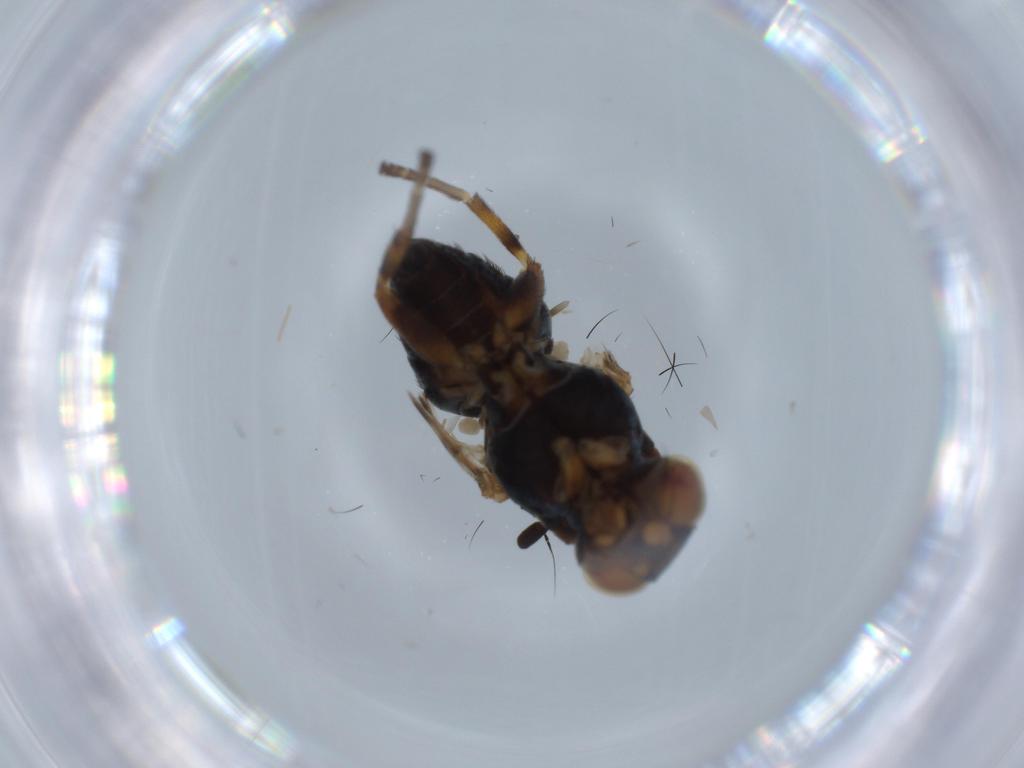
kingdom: Animalia
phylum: Arthropoda
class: Insecta
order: Diptera
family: Odiniidae
